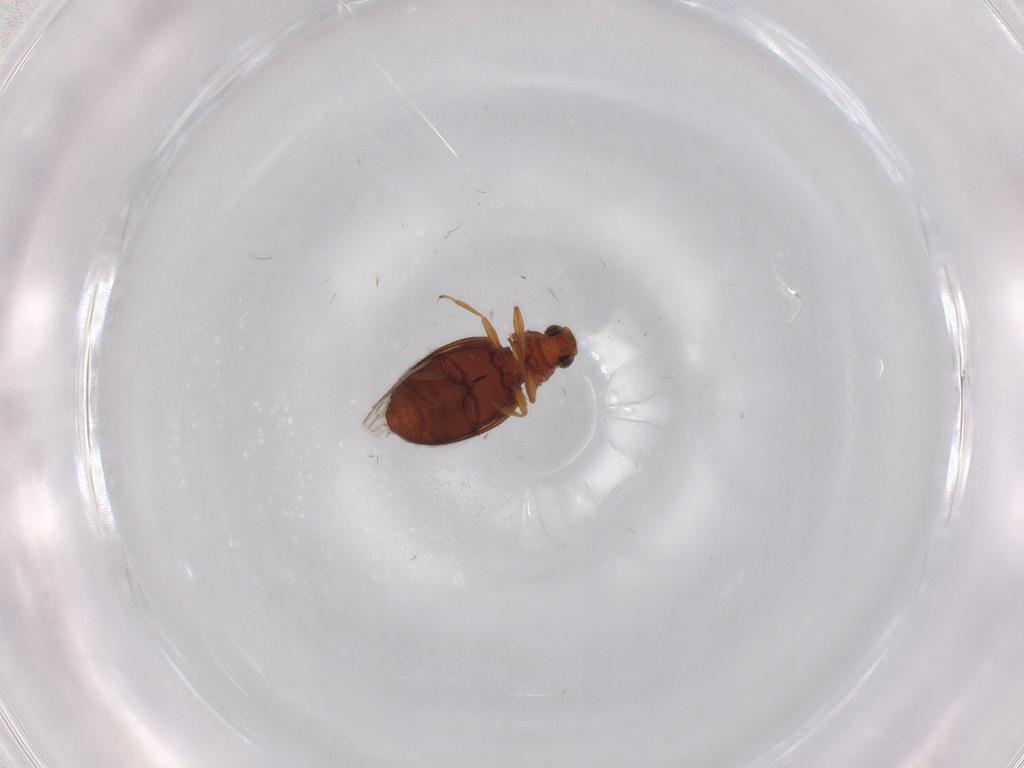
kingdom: Animalia
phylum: Arthropoda
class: Insecta
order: Coleoptera
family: Latridiidae
